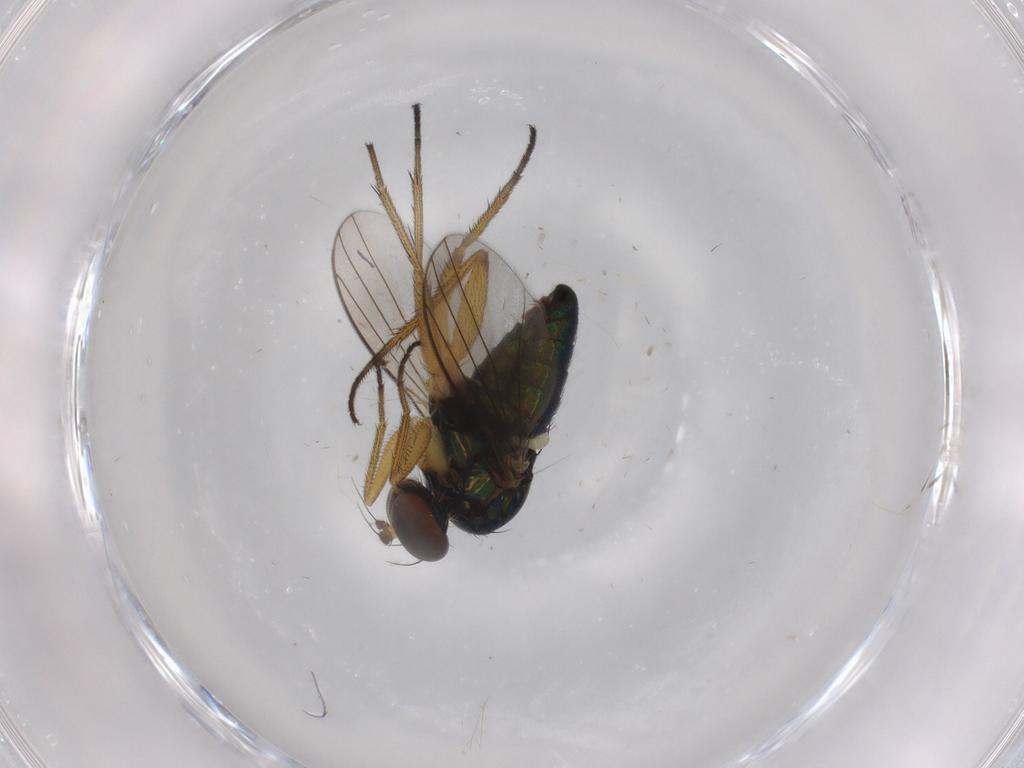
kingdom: Animalia
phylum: Arthropoda
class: Insecta
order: Diptera
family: Dolichopodidae
